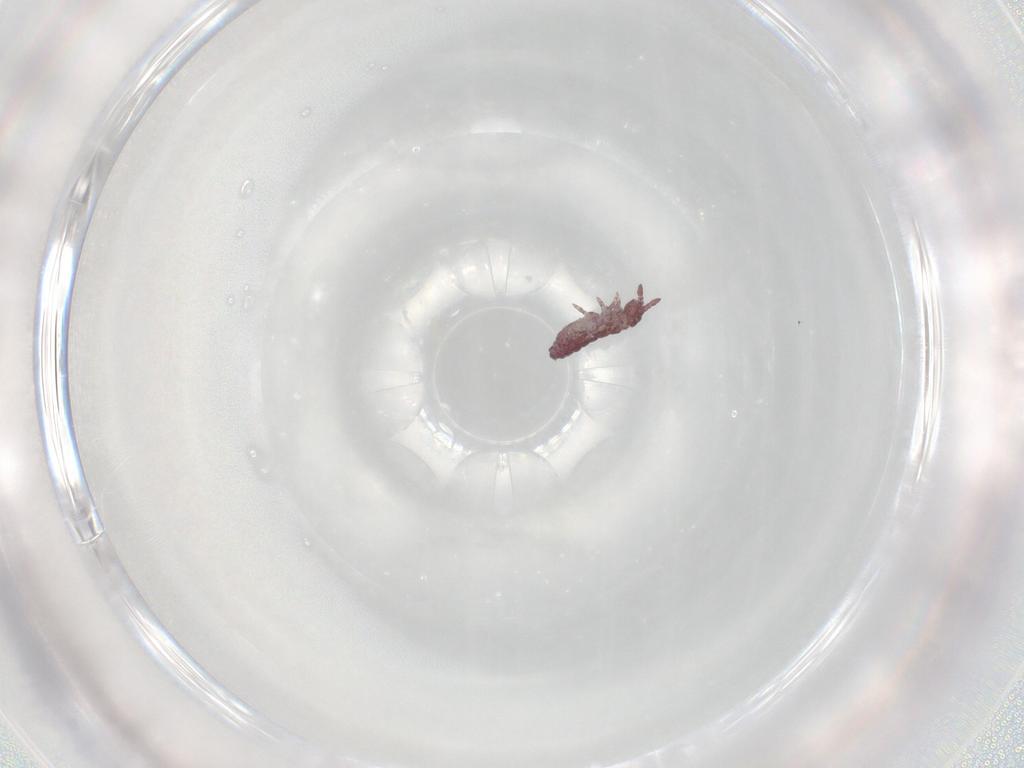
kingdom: Animalia
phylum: Arthropoda
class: Collembola
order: Poduromorpha
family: Hypogastruridae
